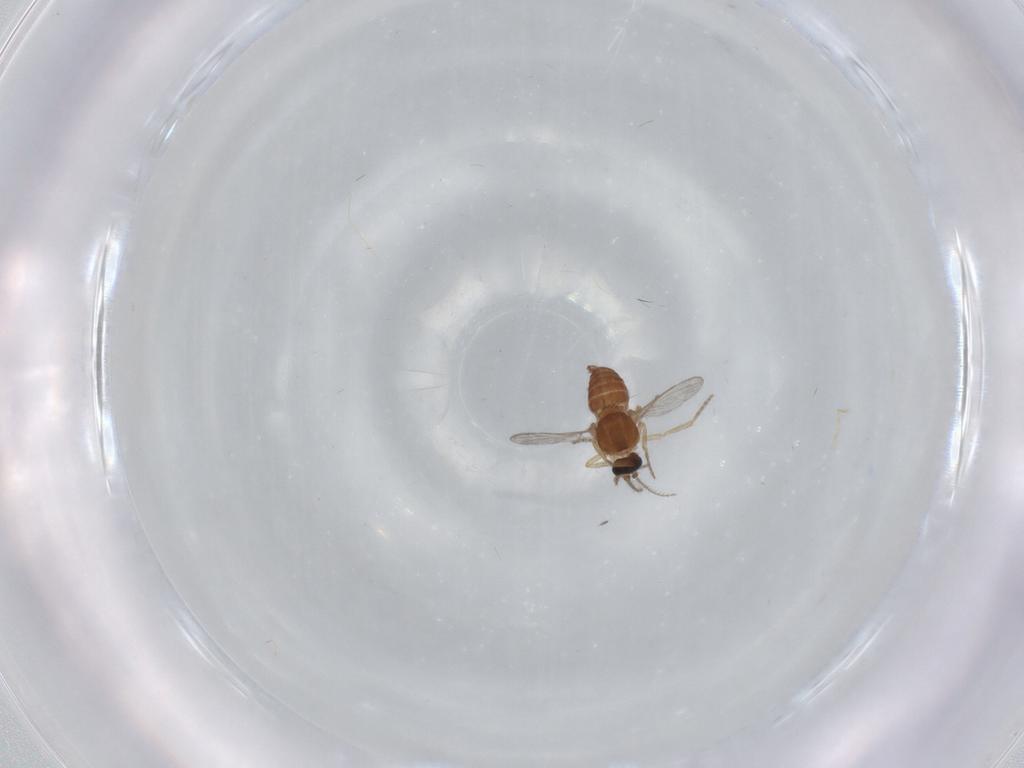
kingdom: Animalia
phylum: Arthropoda
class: Insecta
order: Diptera
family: Ceratopogonidae
